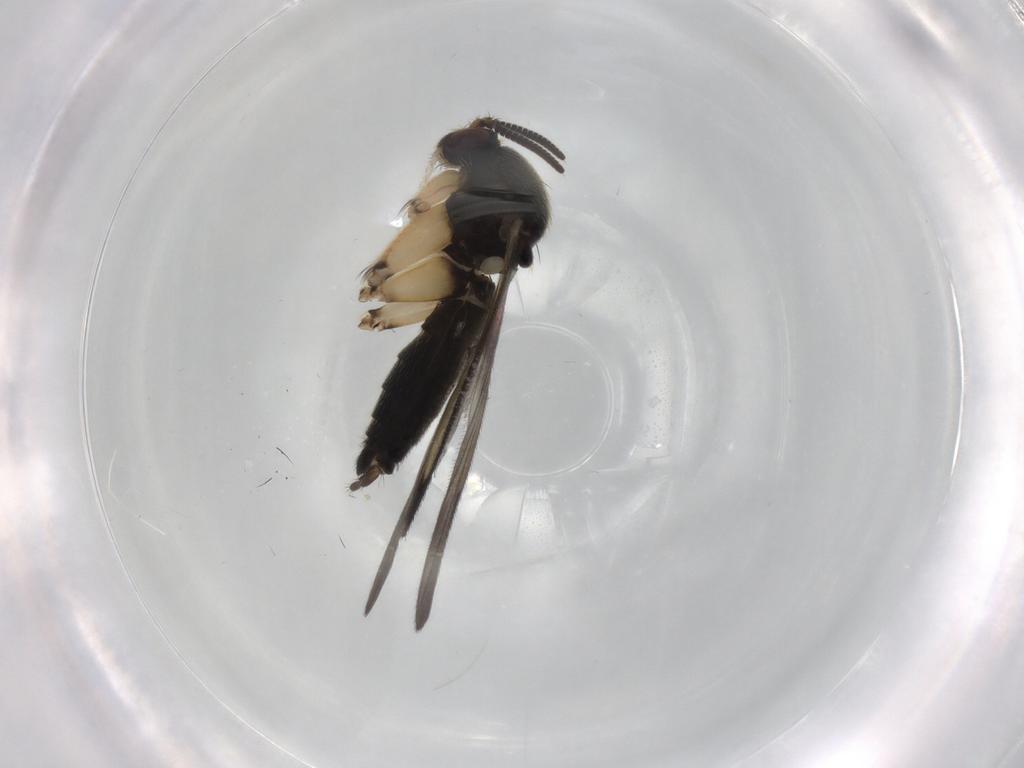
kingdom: Animalia
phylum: Arthropoda
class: Insecta
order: Diptera
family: Mycetophilidae
